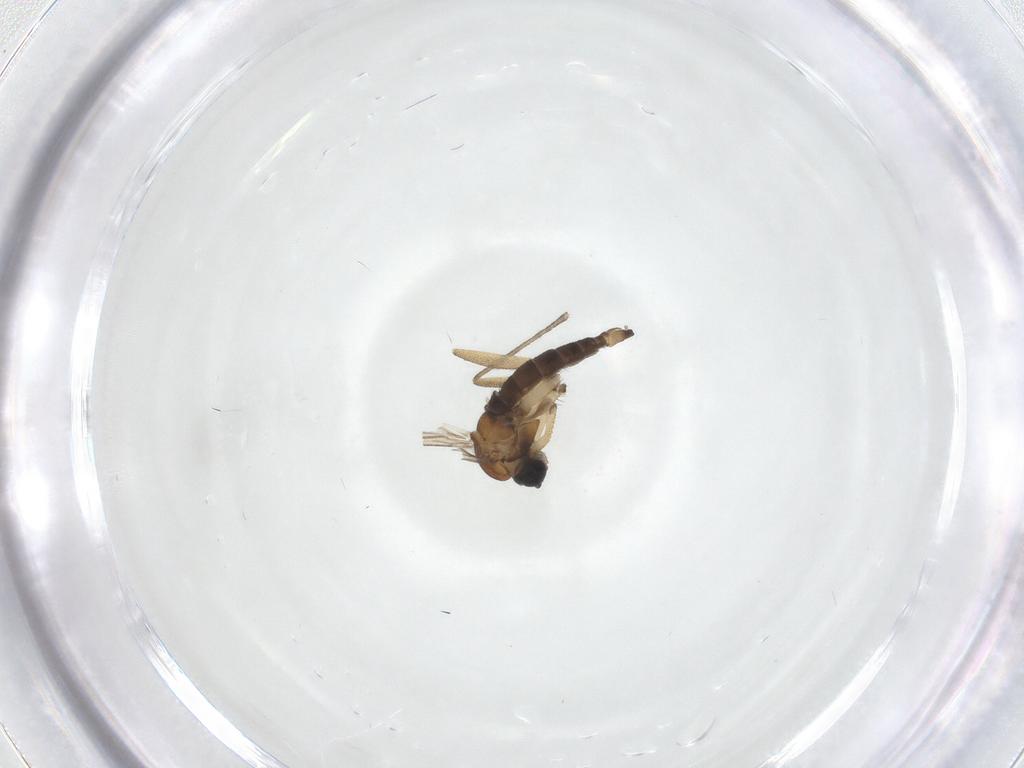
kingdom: Animalia
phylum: Arthropoda
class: Insecta
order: Diptera
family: Sciaridae
